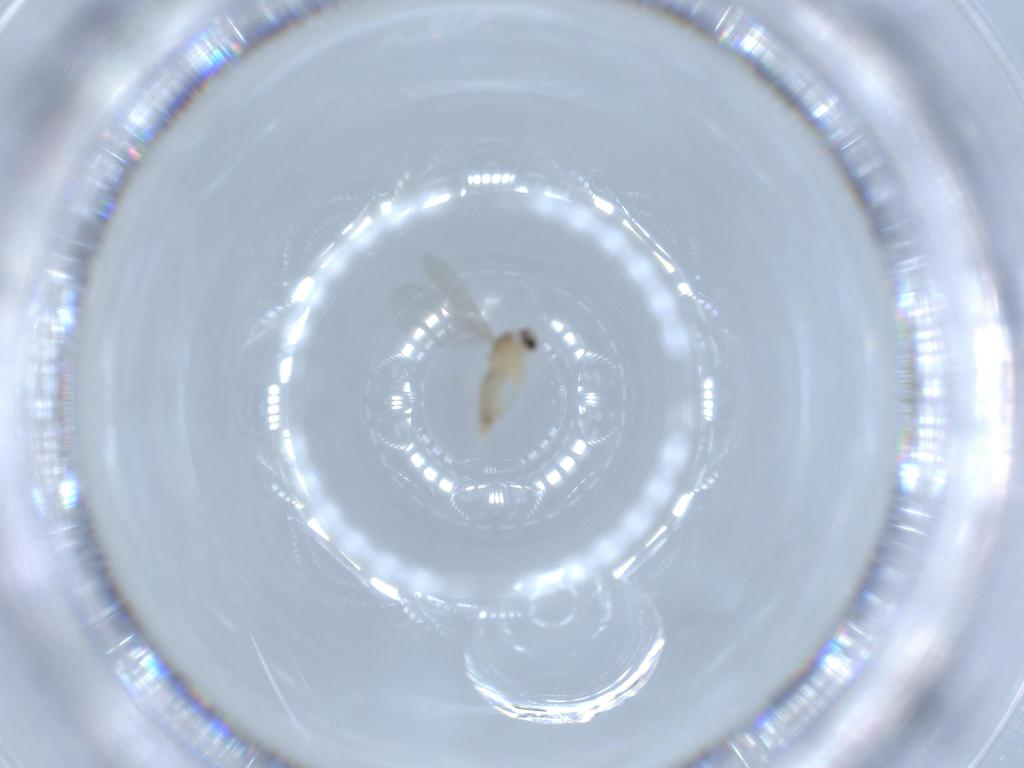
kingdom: Animalia
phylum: Arthropoda
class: Insecta
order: Diptera
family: Cecidomyiidae
